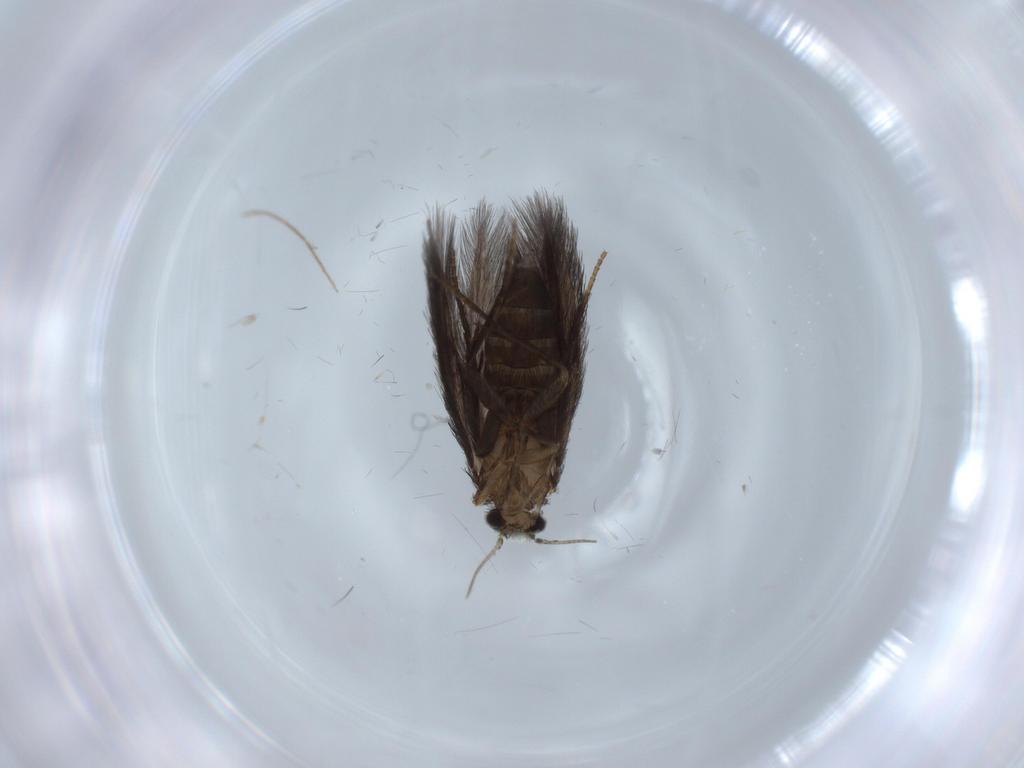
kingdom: Animalia
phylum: Arthropoda
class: Insecta
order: Trichoptera
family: Hydroptilidae
